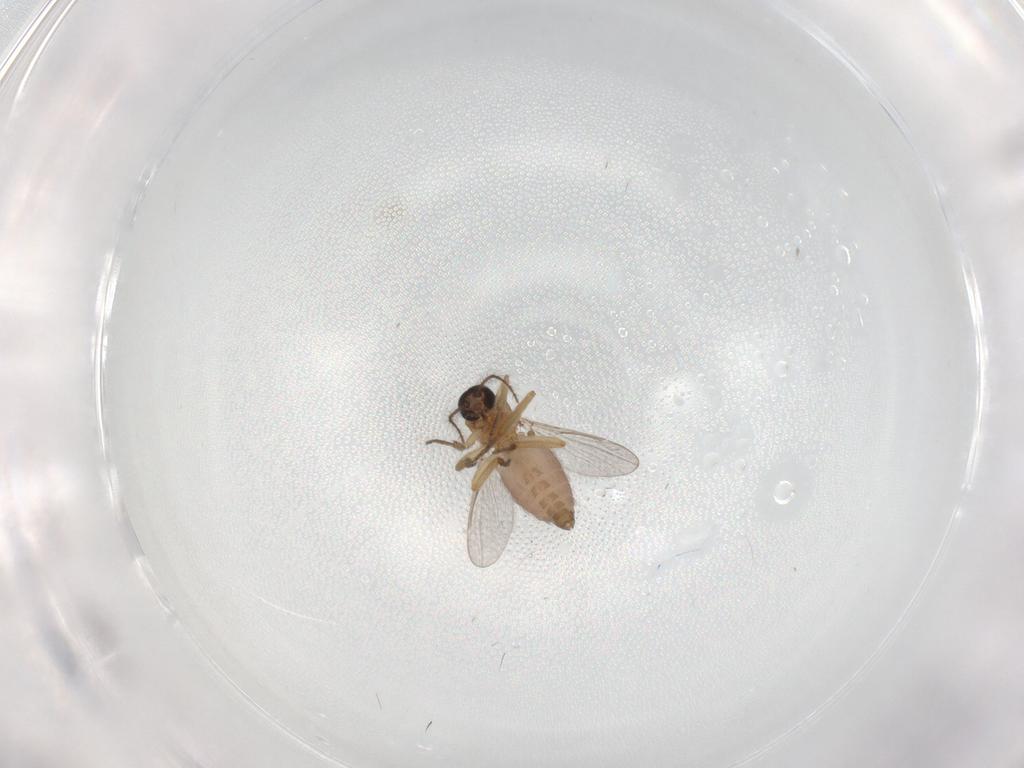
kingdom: Animalia
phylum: Arthropoda
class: Insecta
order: Diptera
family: Ceratopogonidae
